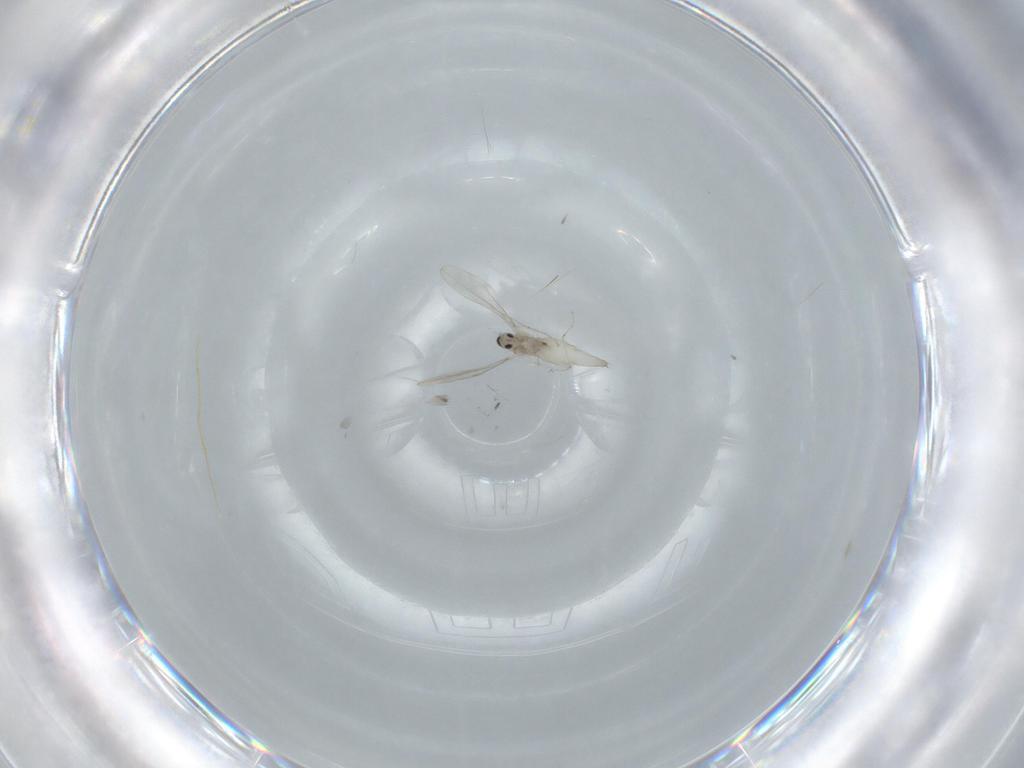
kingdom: Animalia
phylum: Arthropoda
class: Insecta
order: Diptera
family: Cecidomyiidae
